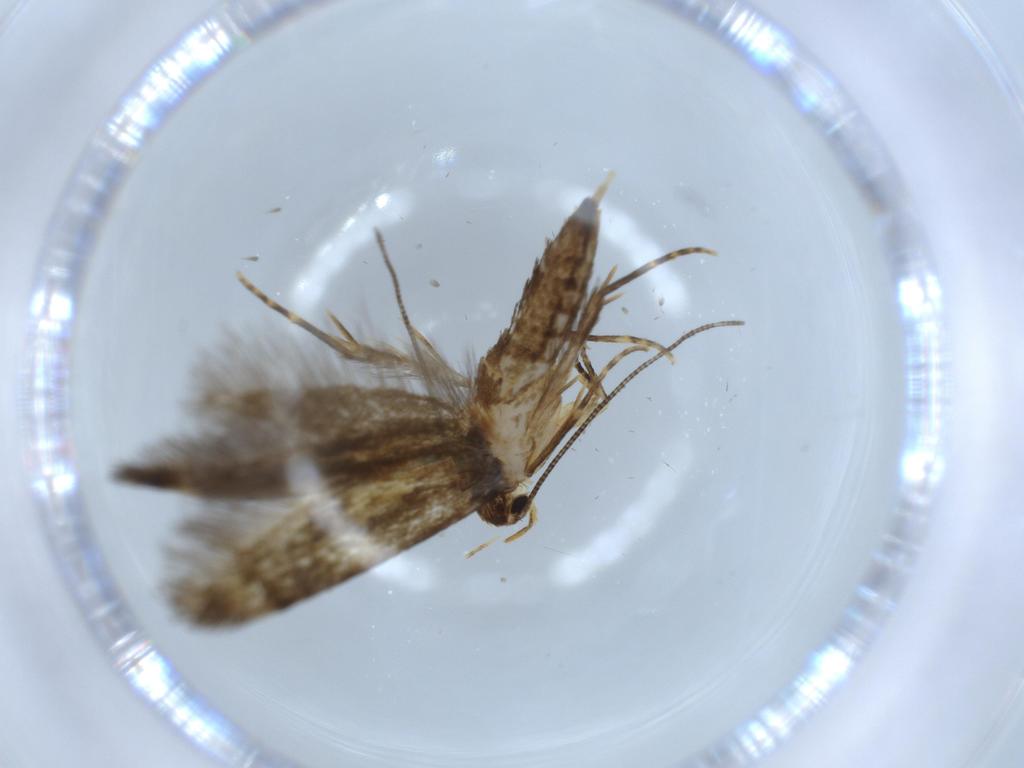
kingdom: Animalia
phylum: Arthropoda
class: Insecta
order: Lepidoptera
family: Tineidae
